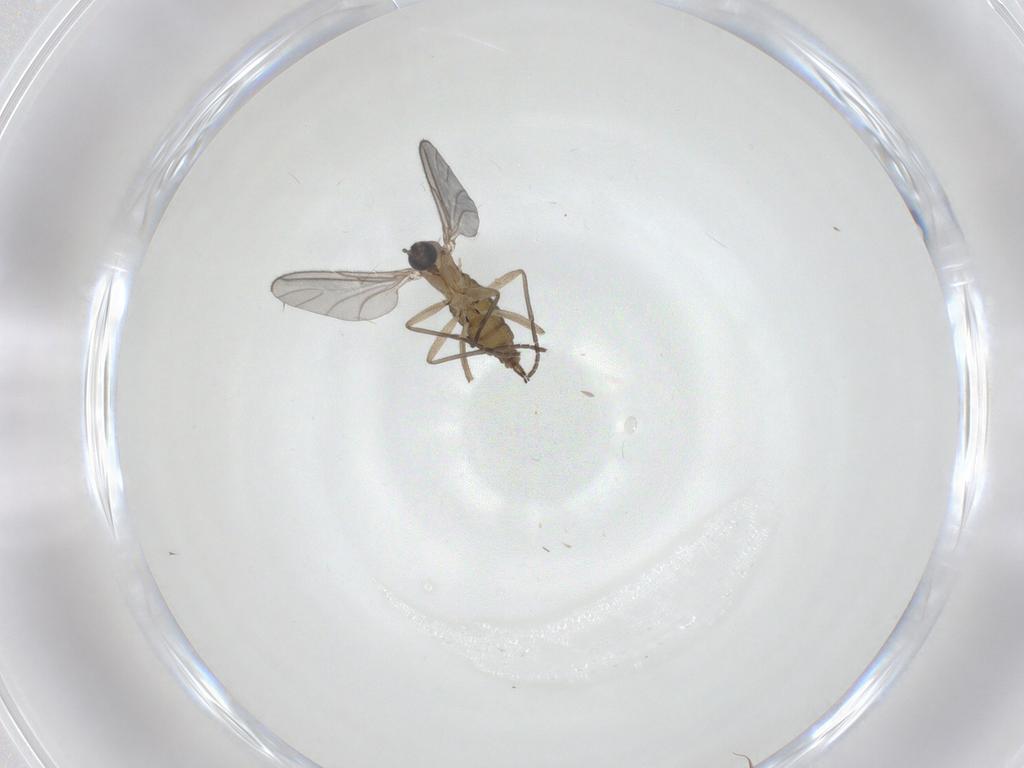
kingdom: Animalia
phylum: Arthropoda
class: Insecta
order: Diptera
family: Sciaridae
